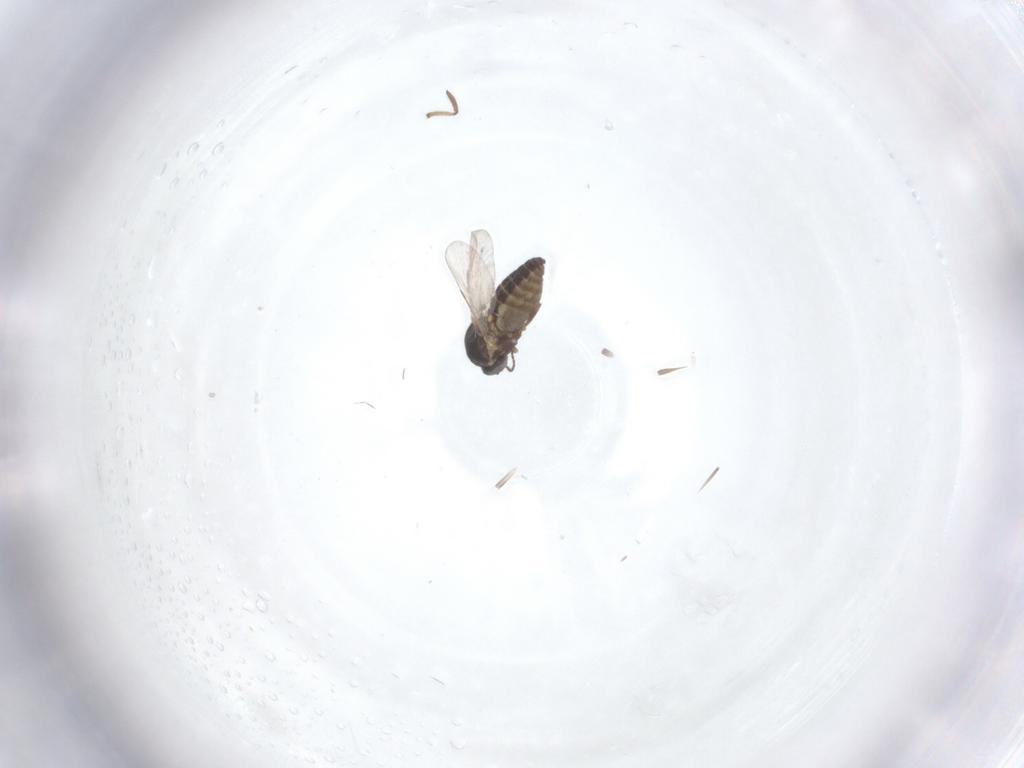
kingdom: Animalia
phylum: Arthropoda
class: Insecta
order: Diptera
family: Ceratopogonidae
